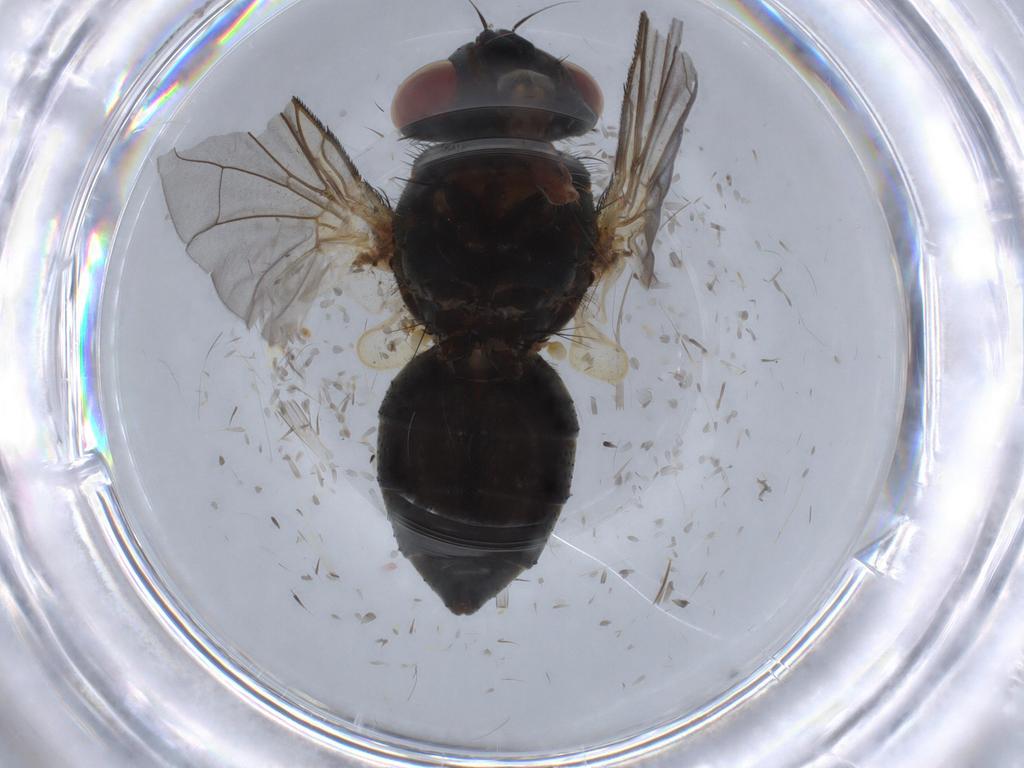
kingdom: Animalia
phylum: Arthropoda
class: Insecta
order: Diptera
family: Tachinidae
